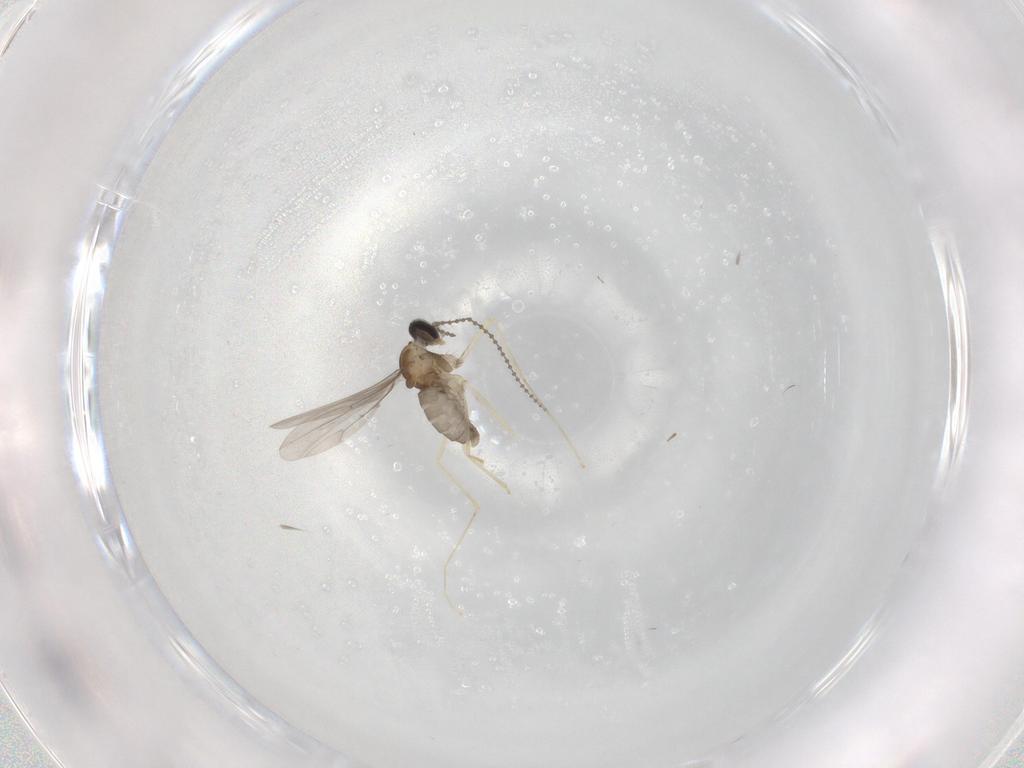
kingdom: Animalia
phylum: Arthropoda
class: Insecta
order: Diptera
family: Cecidomyiidae
